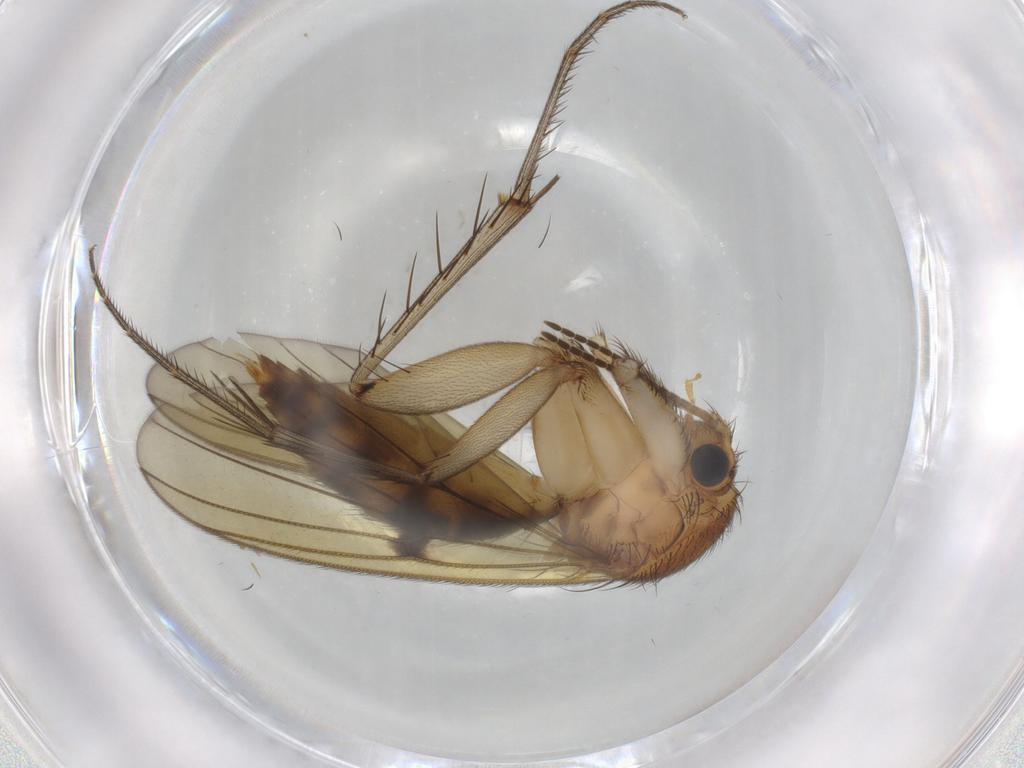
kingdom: Animalia
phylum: Arthropoda
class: Insecta
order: Diptera
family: Mycetophilidae
